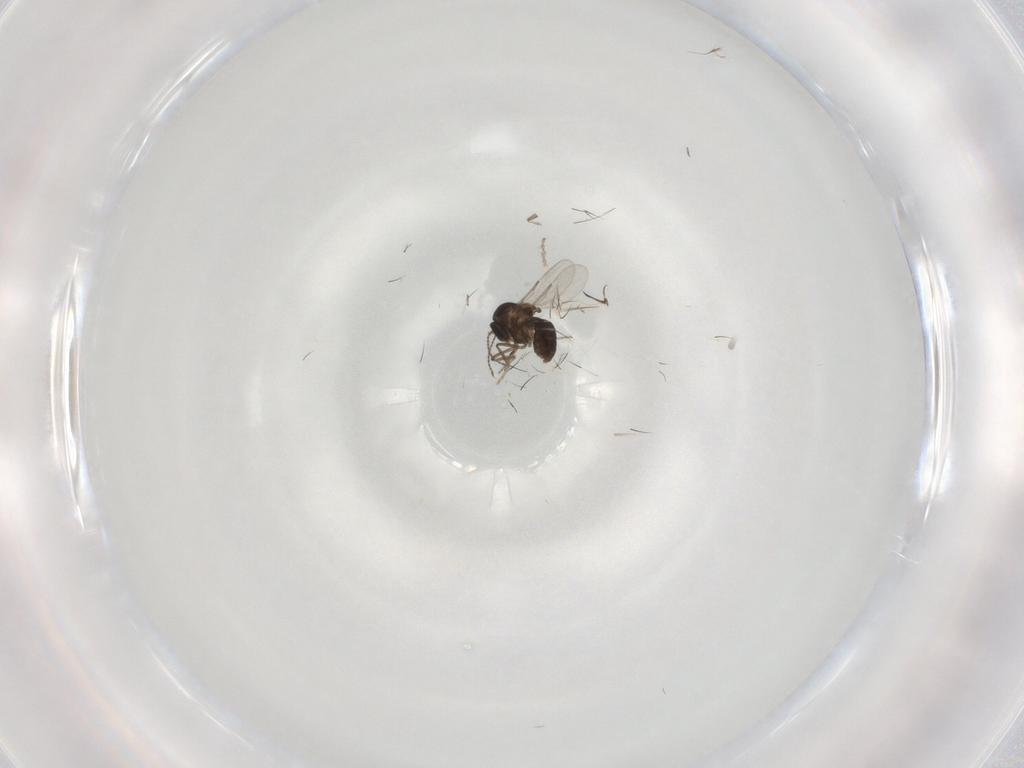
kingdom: Animalia
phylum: Arthropoda
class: Insecta
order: Diptera
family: Ceratopogonidae
